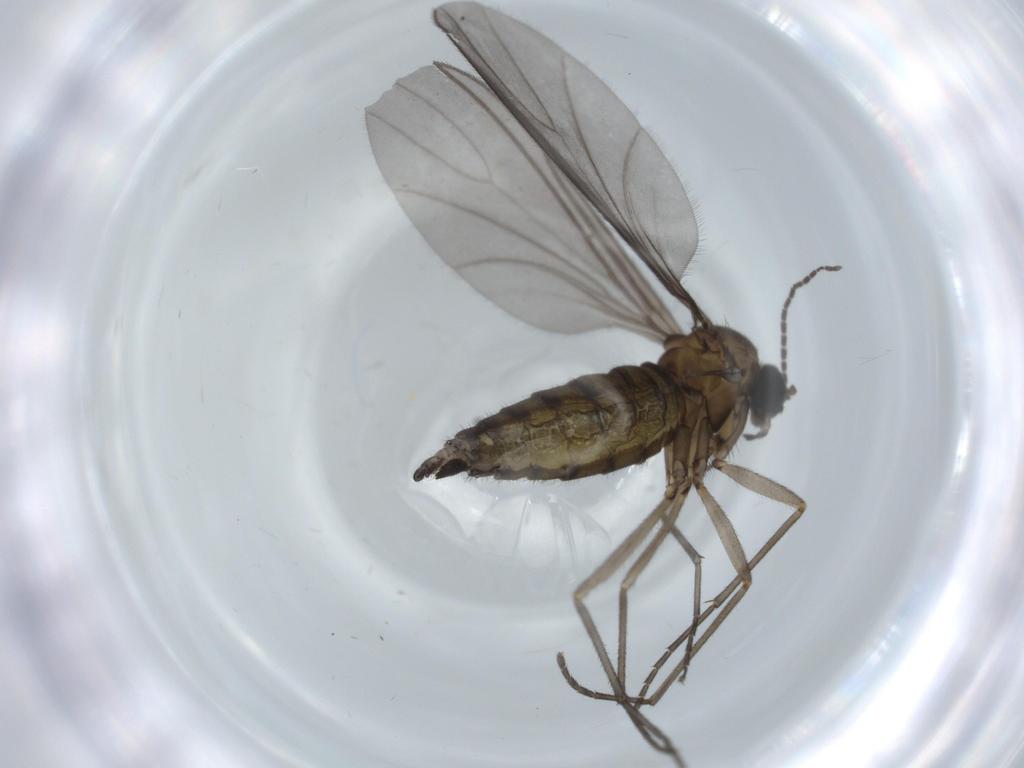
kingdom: Animalia
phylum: Arthropoda
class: Insecta
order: Diptera
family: Sciaridae
